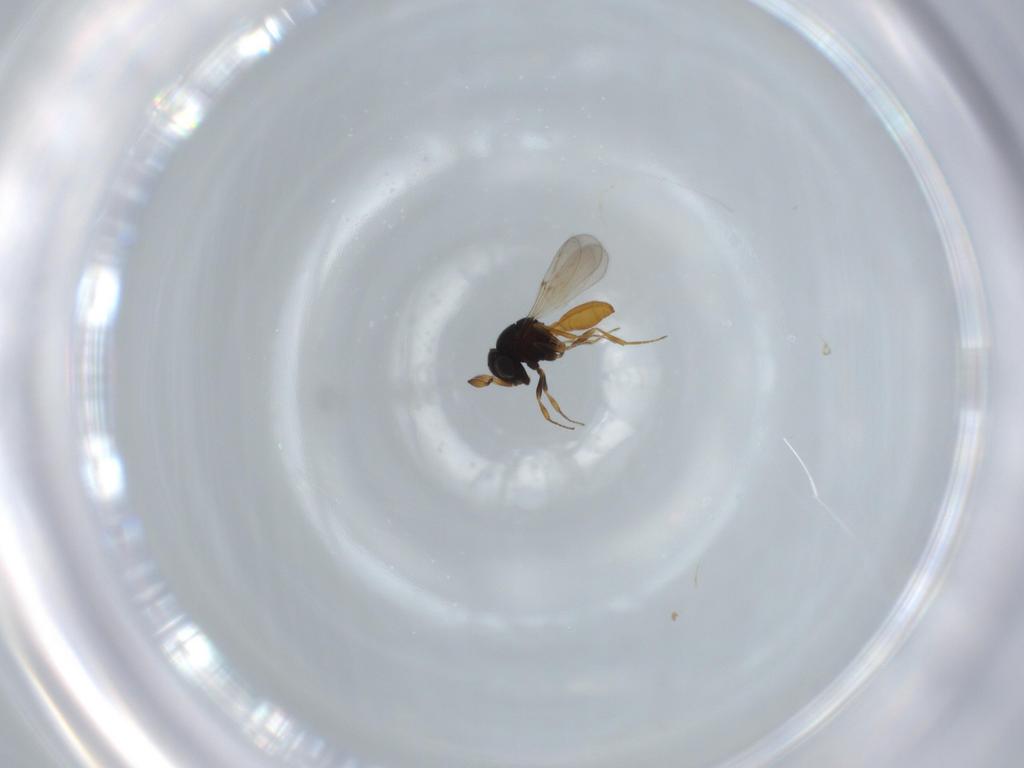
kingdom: Animalia
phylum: Arthropoda
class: Insecta
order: Hymenoptera
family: Scelionidae
